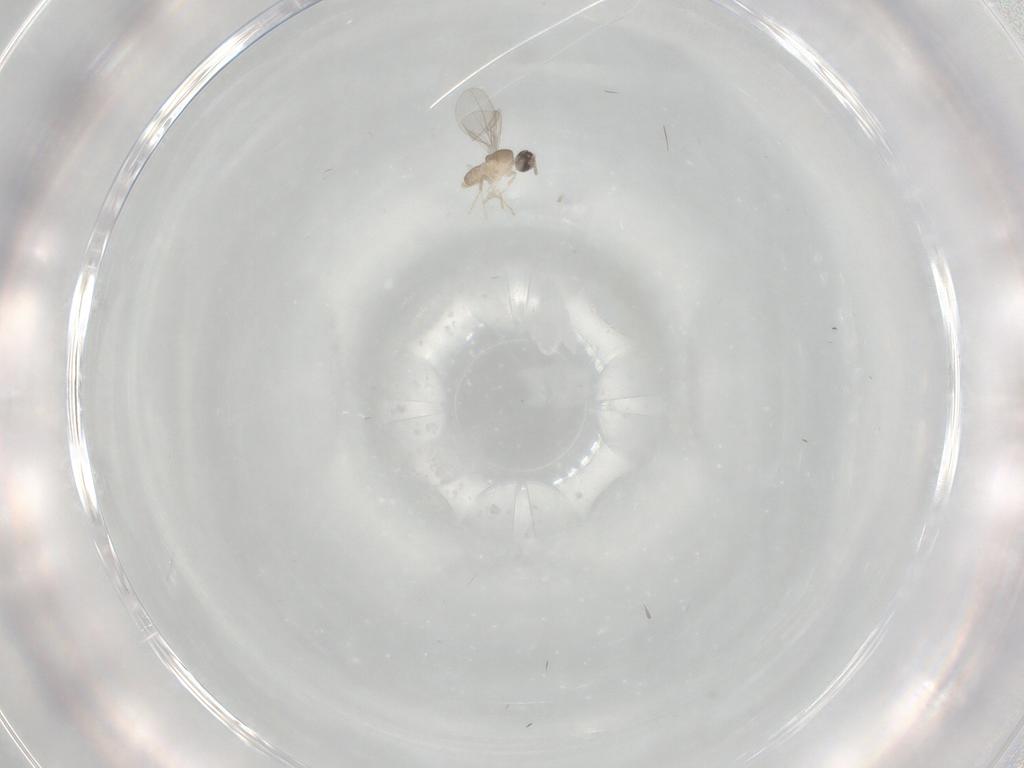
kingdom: Animalia
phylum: Arthropoda
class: Insecta
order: Diptera
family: Cecidomyiidae
